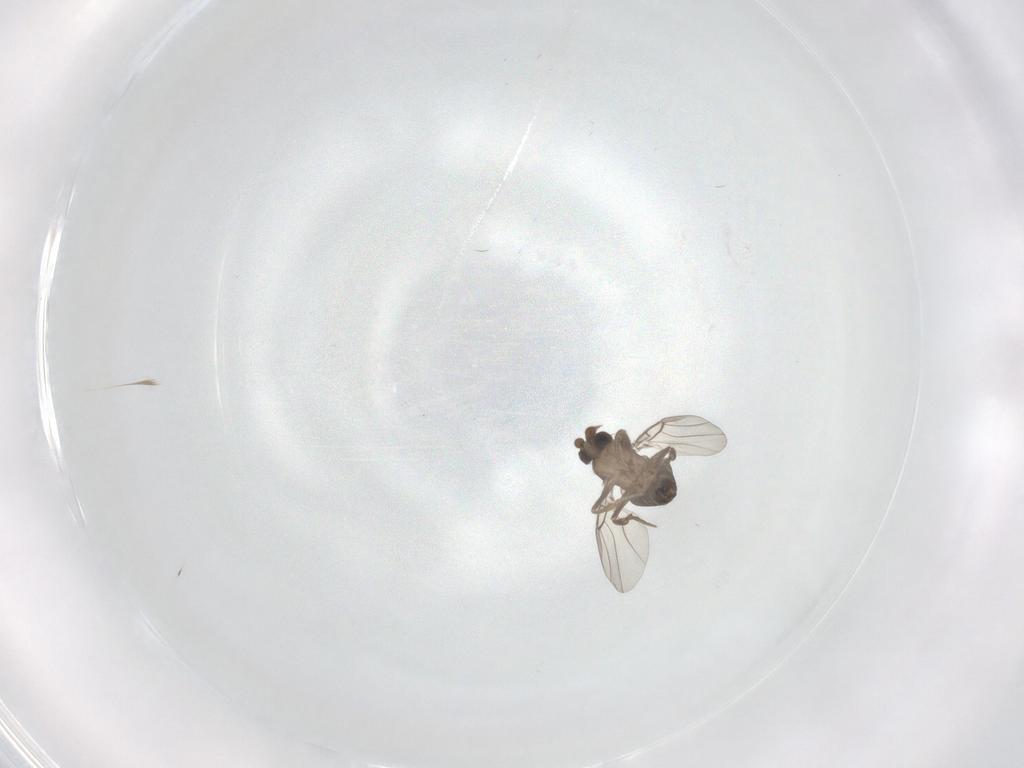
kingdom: Animalia
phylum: Arthropoda
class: Insecta
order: Diptera
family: Phoridae
